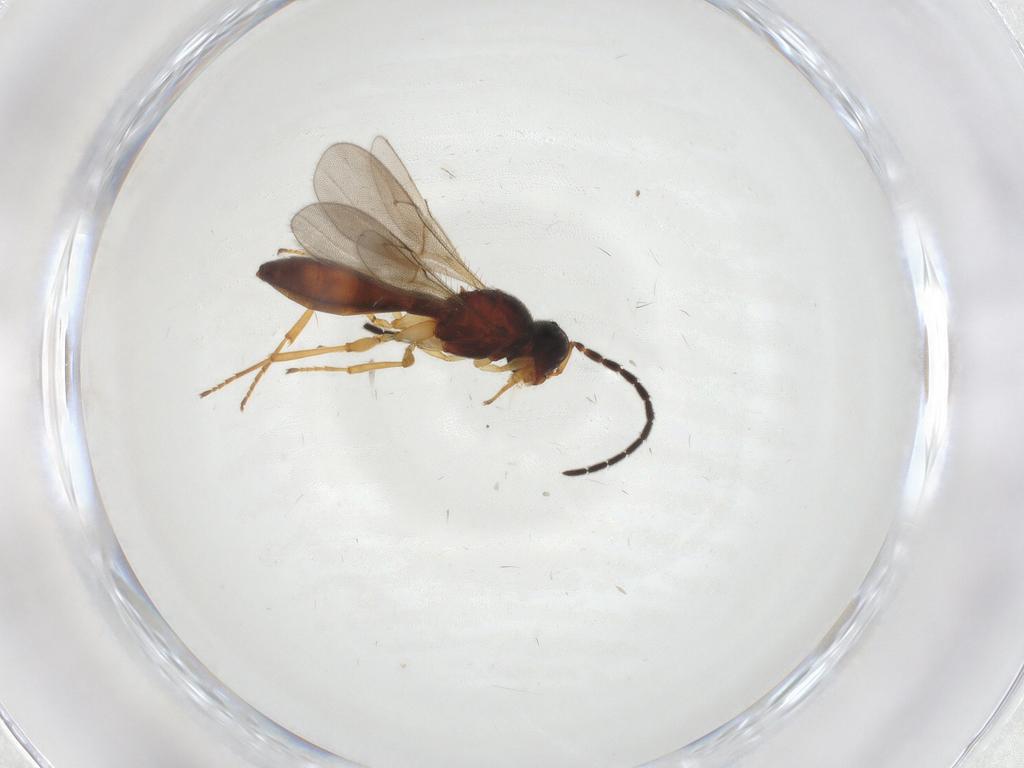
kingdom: Animalia
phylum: Arthropoda
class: Insecta
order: Hymenoptera
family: Scelionidae
